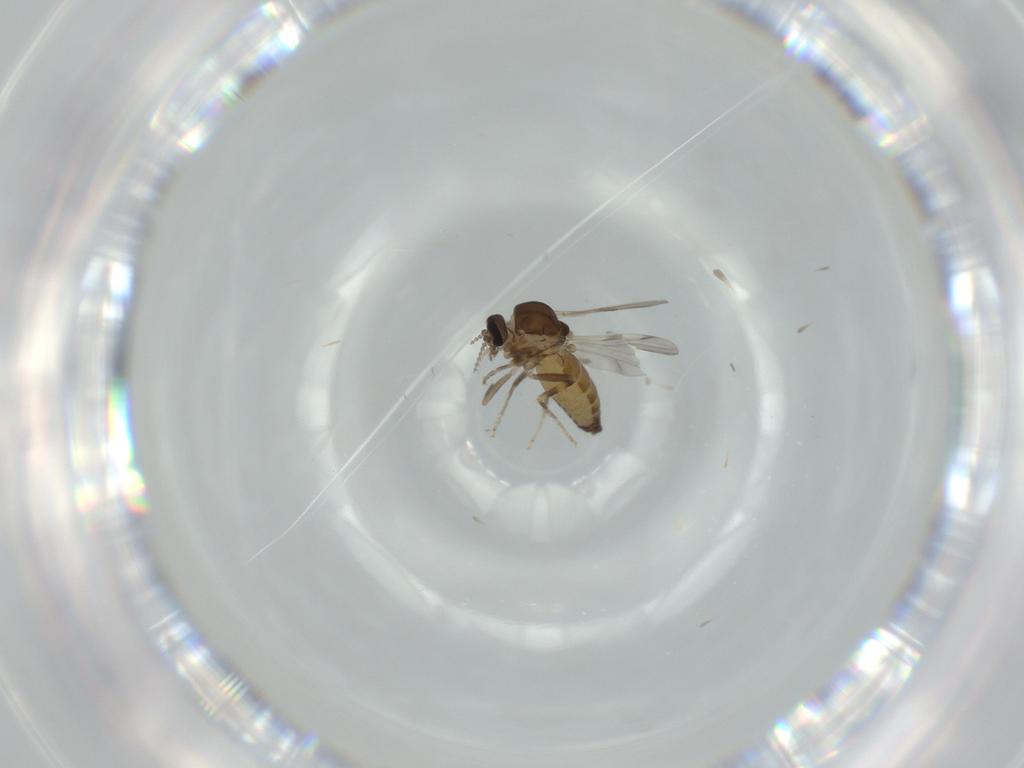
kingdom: Animalia
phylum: Arthropoda
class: Insecta
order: Diptera
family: Ceratopogonidae
